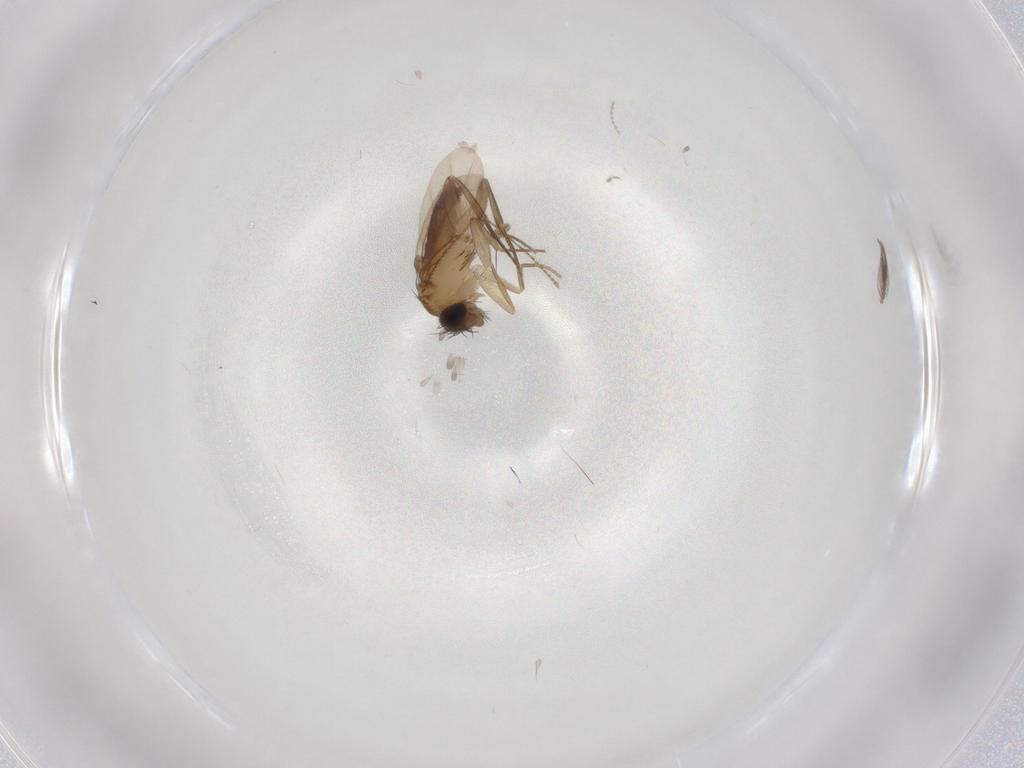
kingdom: Animalia
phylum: Arthropoda
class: Insecta
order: Diptera
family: Phoridae
